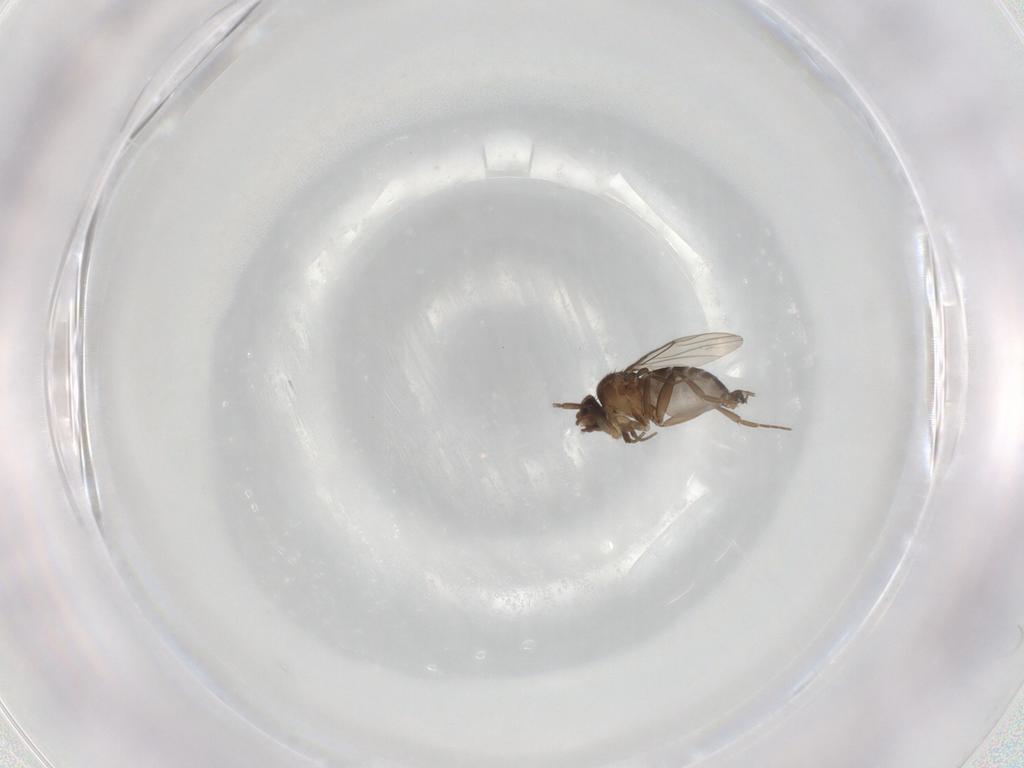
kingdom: Animalia
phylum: Arthropoda
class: Insecta
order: Diptera
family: Phoridae
